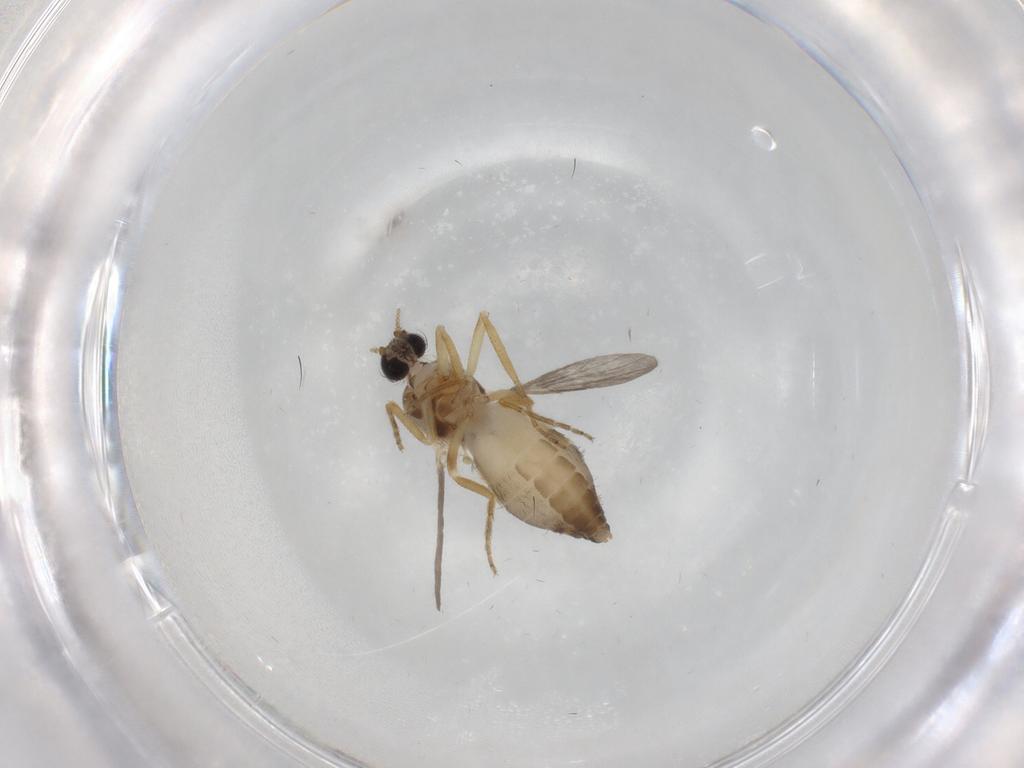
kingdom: Animalia
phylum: Arthropoda
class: Insecta
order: Diptera
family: Ceratopogonidae
